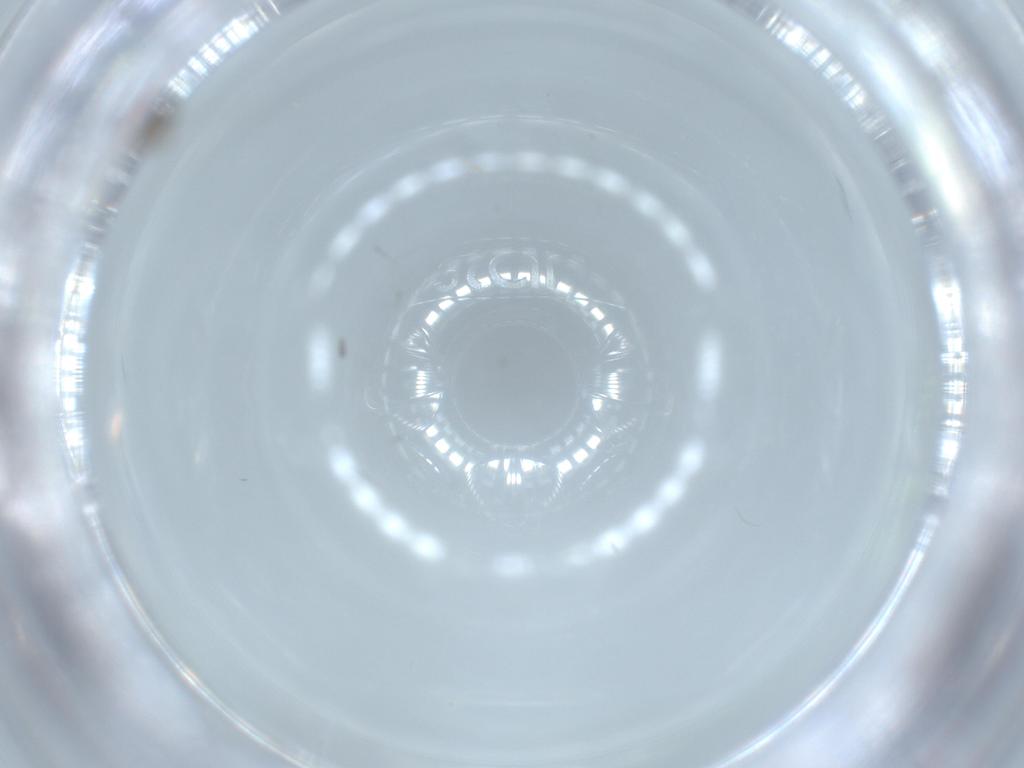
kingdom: Animalia
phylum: Arthropoda
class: Insecta
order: Diptera
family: Cecidomyiidae
